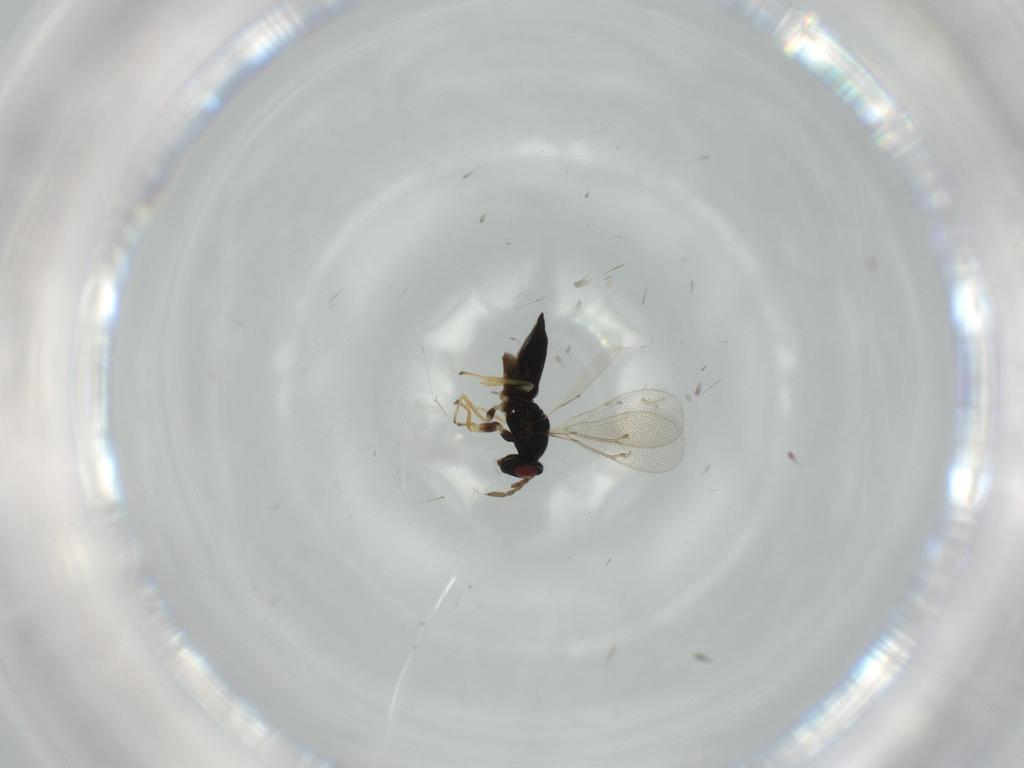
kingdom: Animalia
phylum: Arthropoda
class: Insecta
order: Hymenoptera
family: Eulophidae
